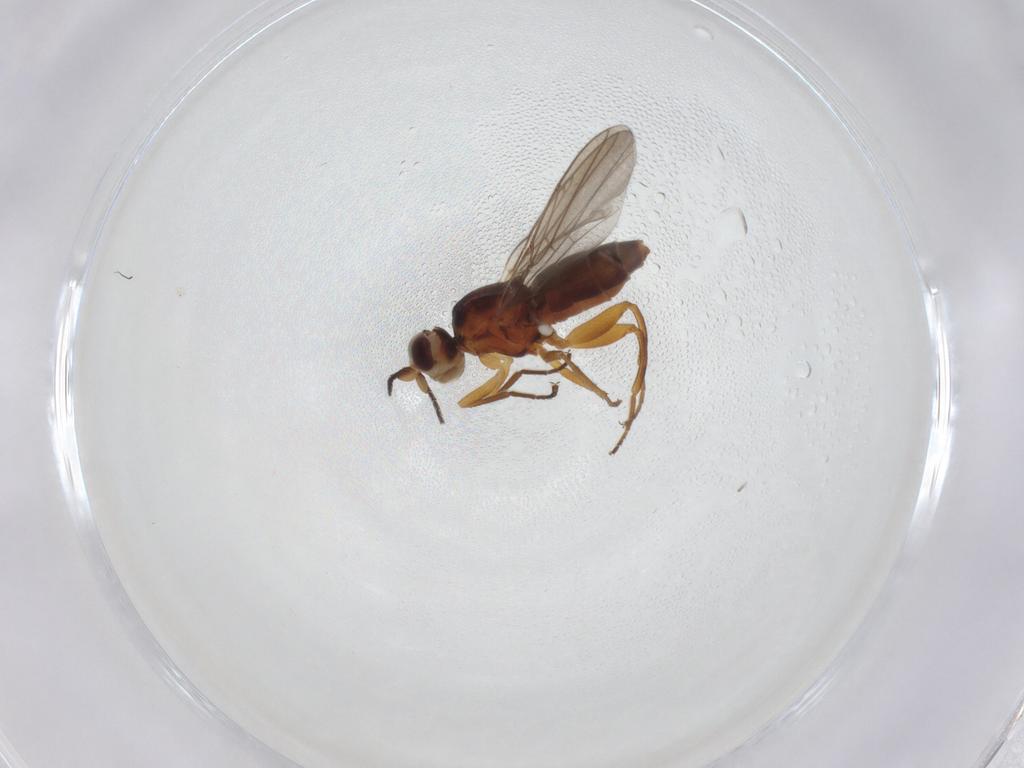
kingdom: Animalia
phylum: Arthropoda
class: Insecta
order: Diptera
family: Chloropidae
